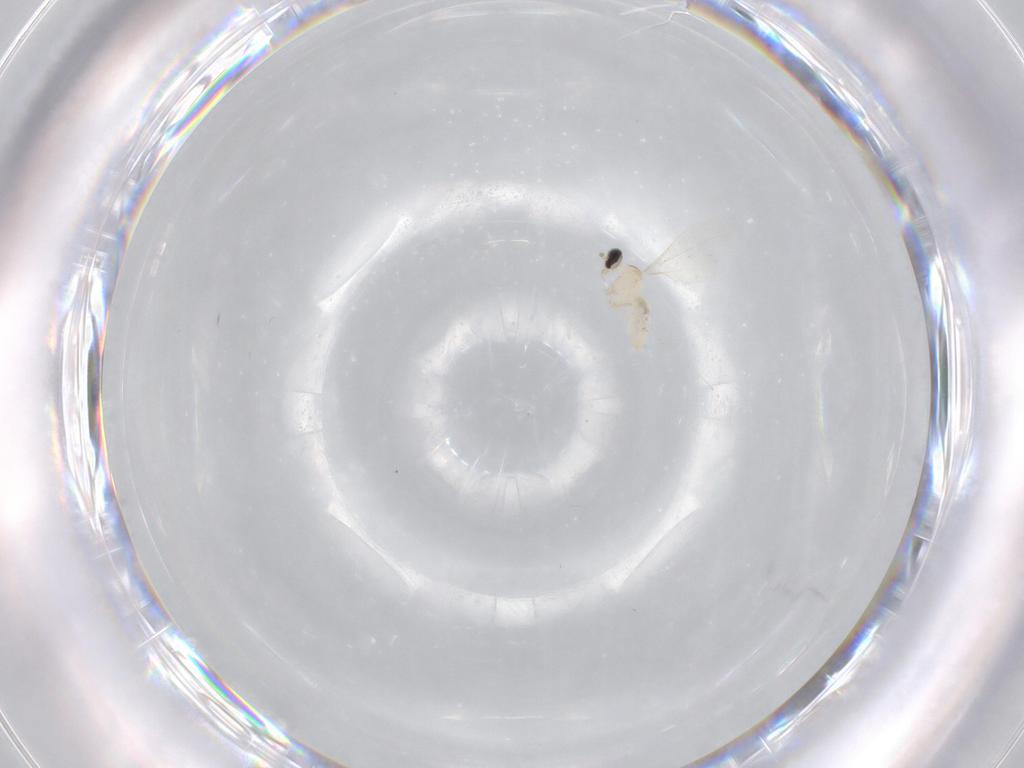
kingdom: Animalia
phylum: Arthropoda
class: Insecta
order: Diptera
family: Cecidomyiidae
